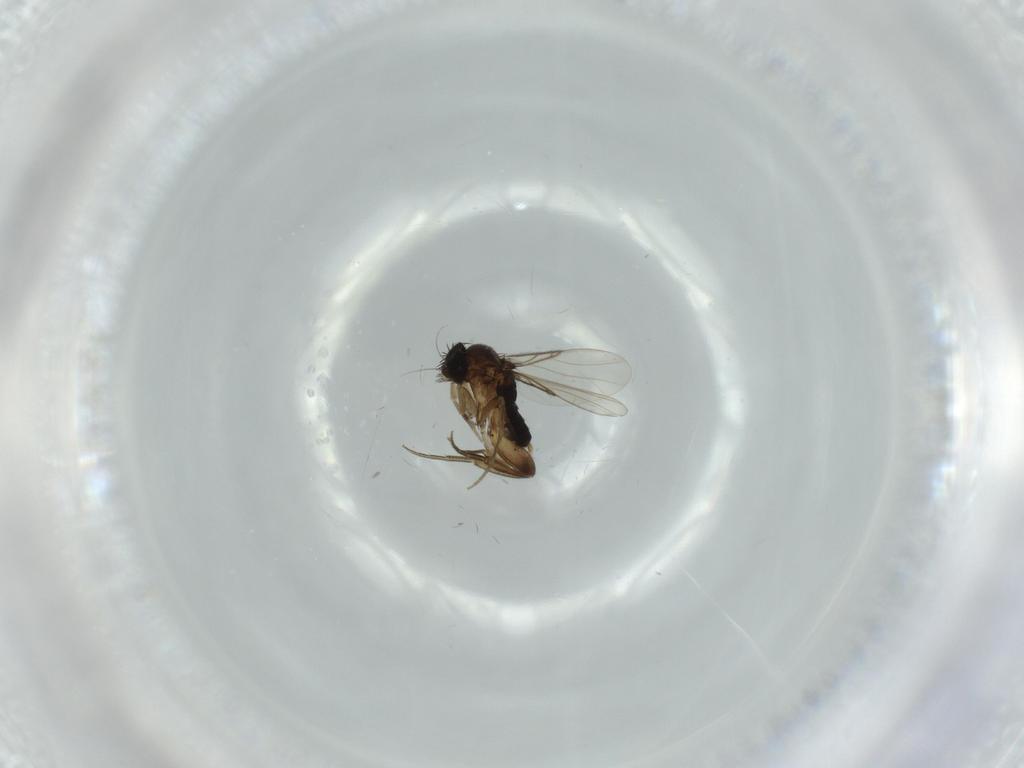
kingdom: Animalia
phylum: Arthropoda
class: Insecta
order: Diptera
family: Phoridae
